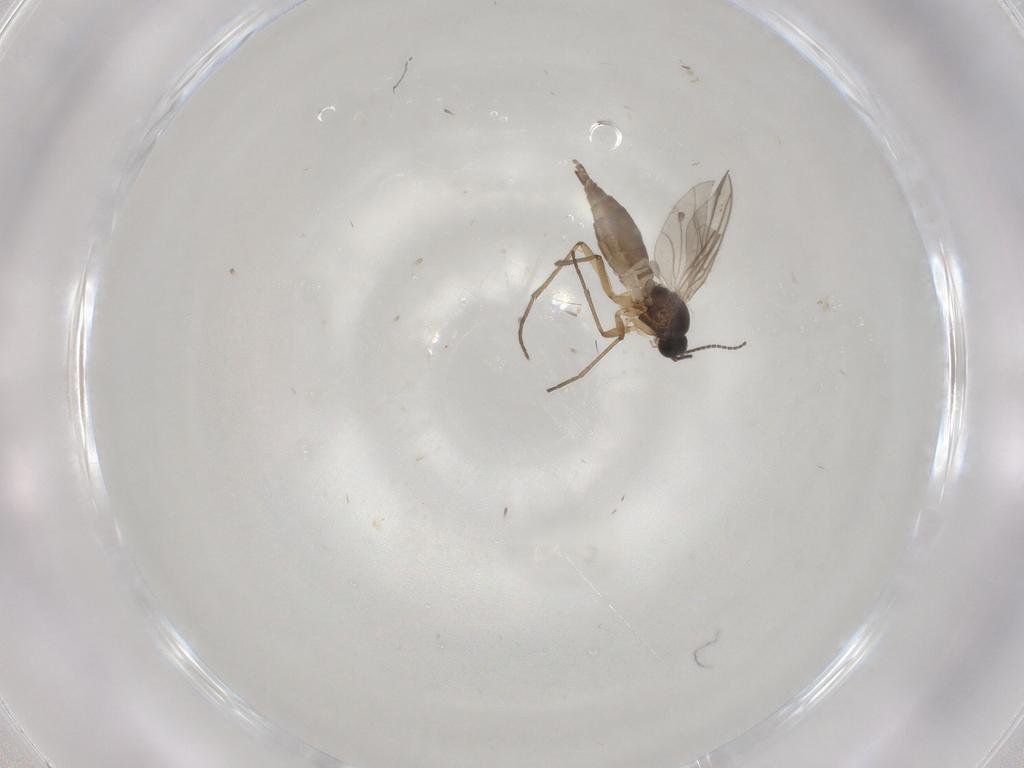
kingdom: Animalia
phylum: Arthropoda
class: Insecta
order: Diptera
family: Sciaridae
